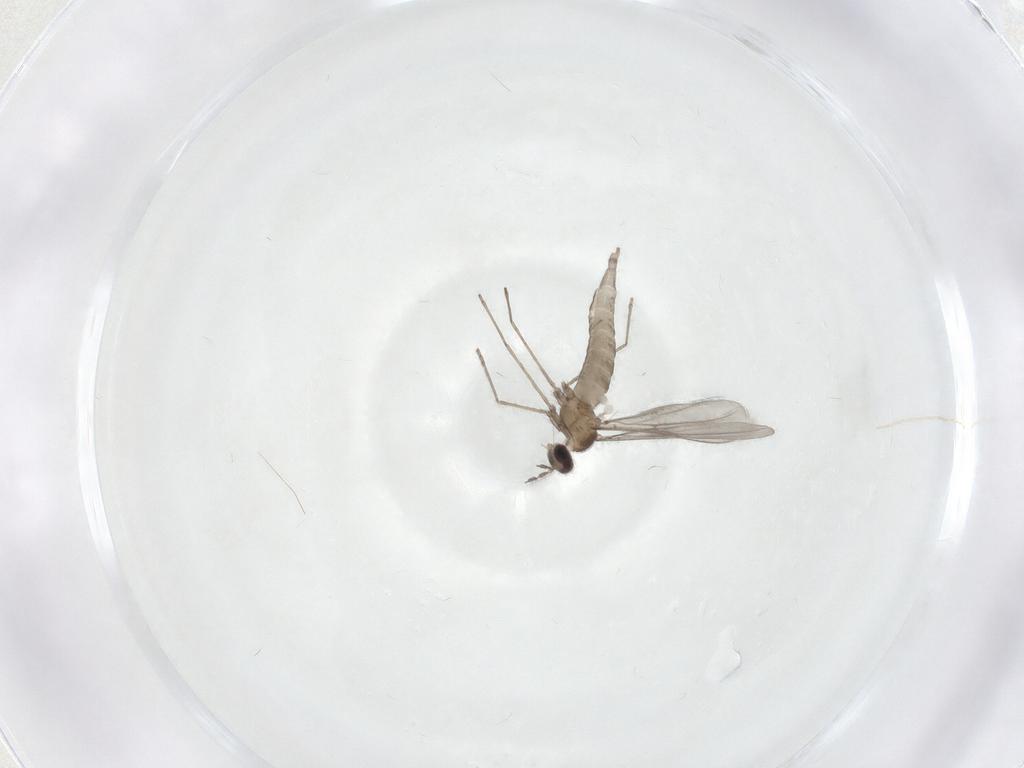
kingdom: Animalia
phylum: Arthropoda
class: Insecta
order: Diptera
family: Cecidomyiidae
